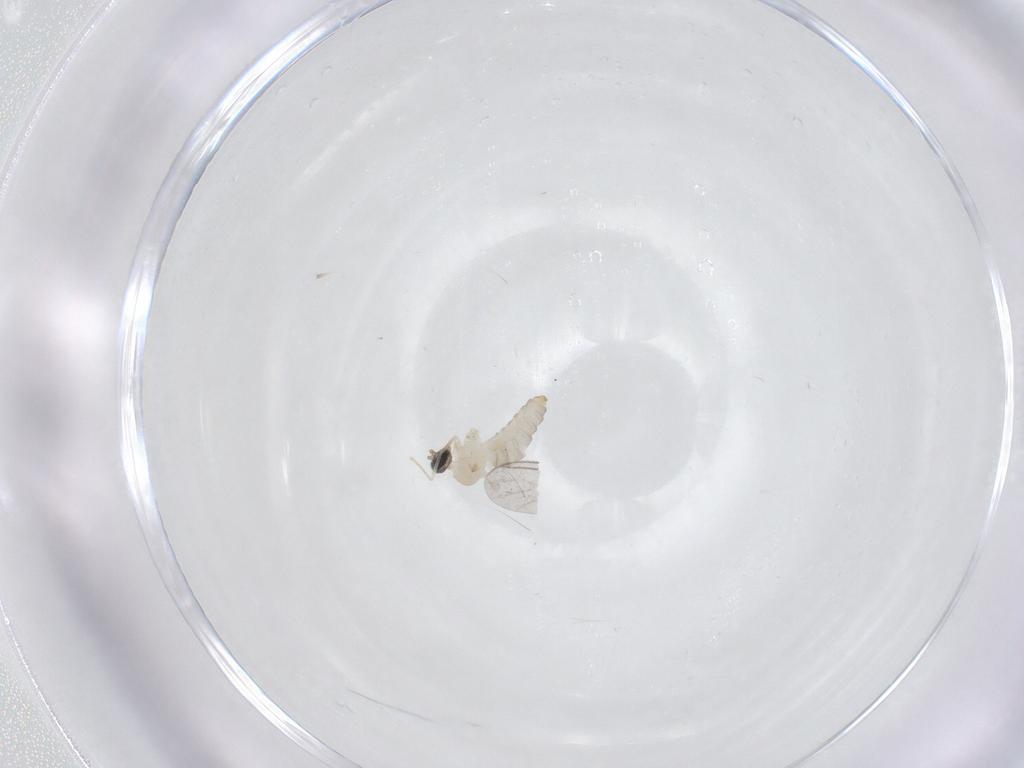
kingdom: Animalia
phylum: Arthropoda
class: Insecta
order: Diptera
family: Cecidomyiidae
